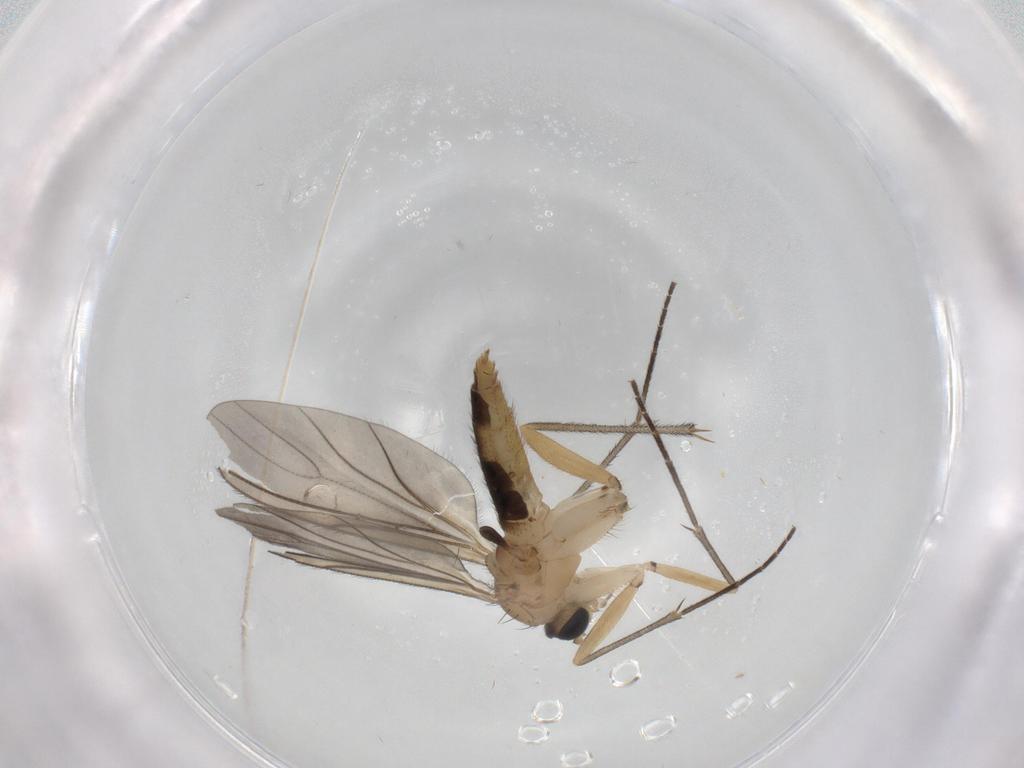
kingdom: Animalia
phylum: Arthropoda
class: Insecta
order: Diptera
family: Sciaridae
